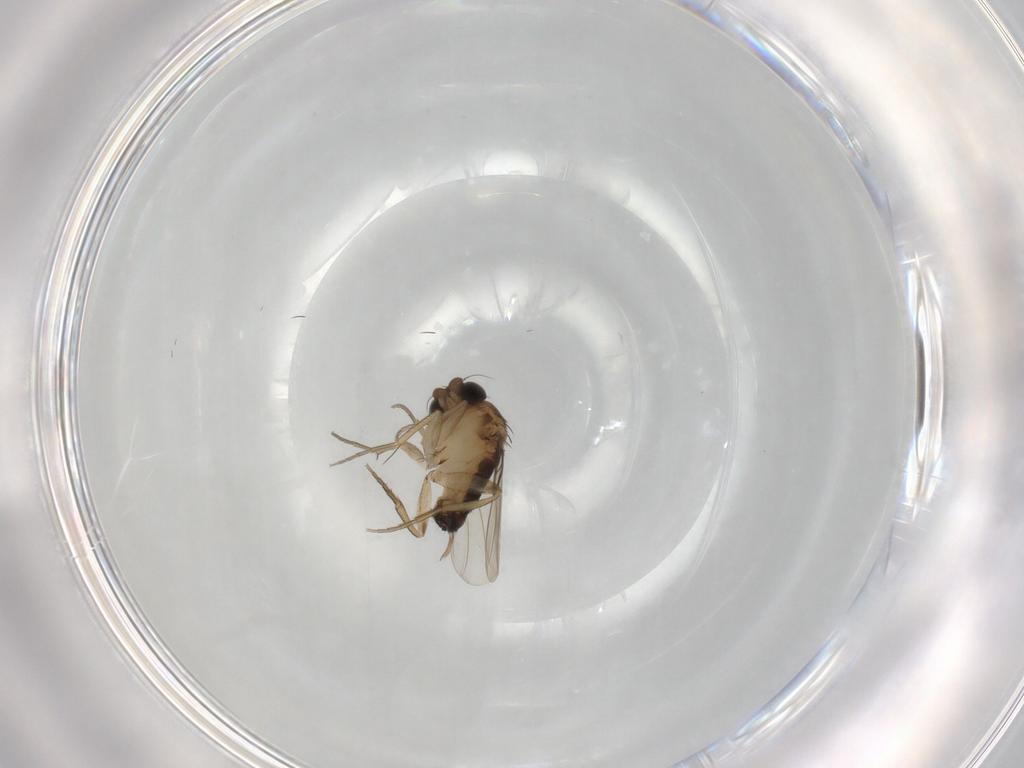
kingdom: Animalia
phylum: Arthropoda
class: Insecta
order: Diptera
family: Phoridae
